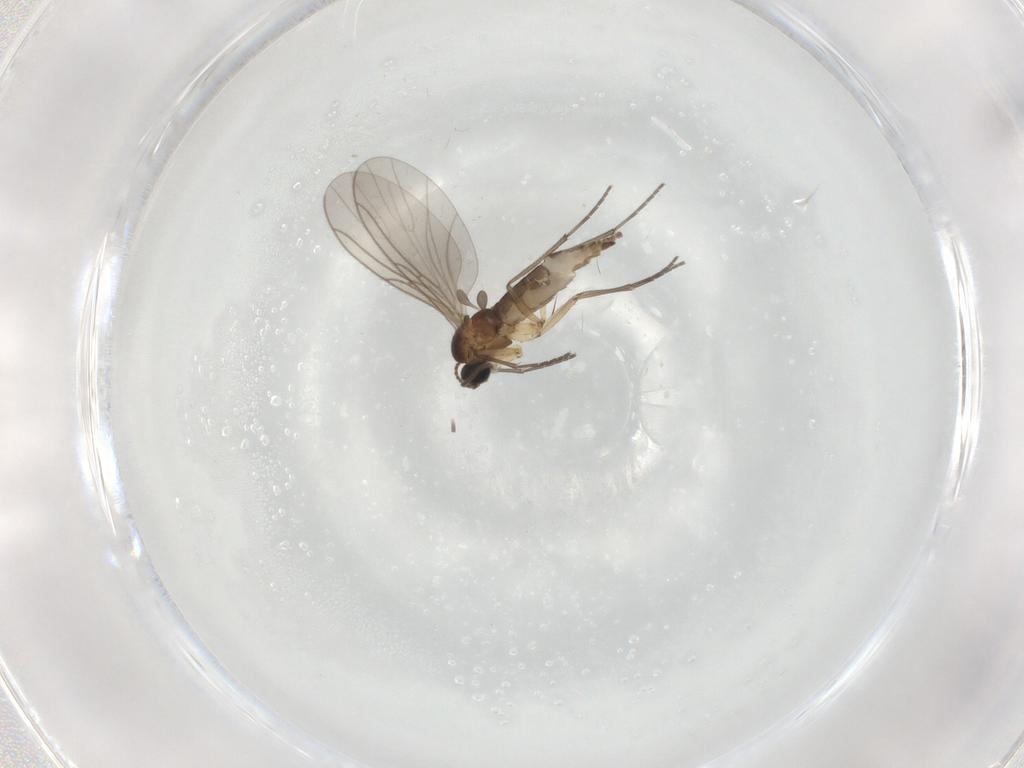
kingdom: Animalia
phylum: Arthropoda
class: Insecta
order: Diptera
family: Sciaridae
